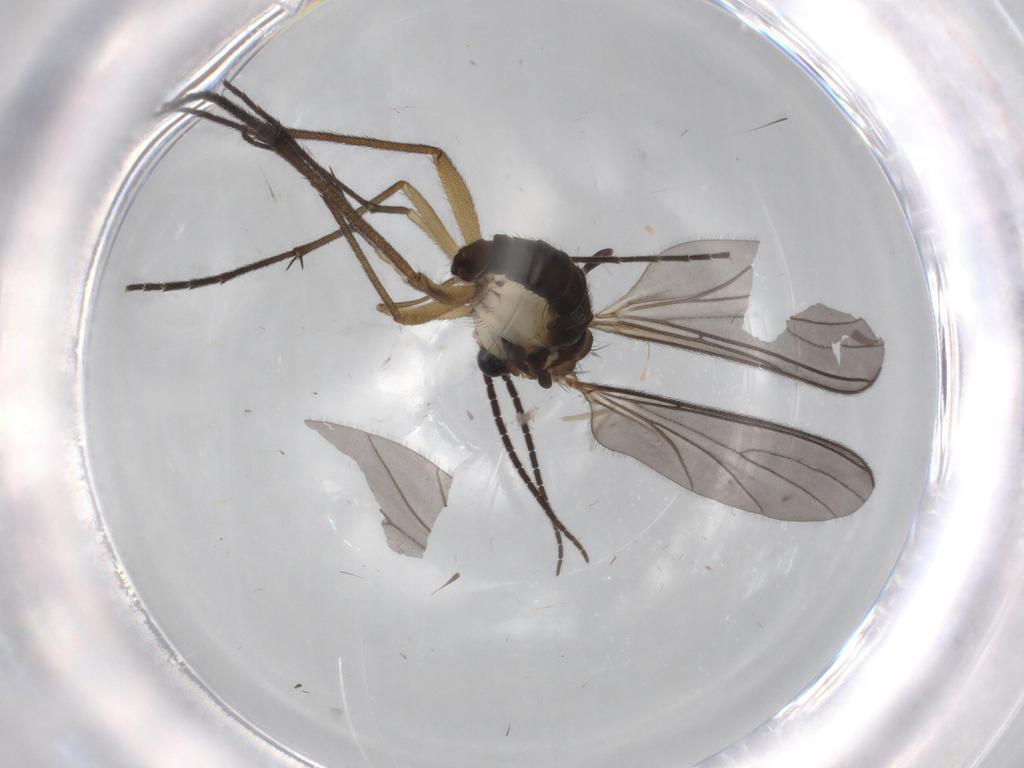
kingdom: Animalia
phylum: Arthropoda
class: Insecta
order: Diptera
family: Sciaridae
